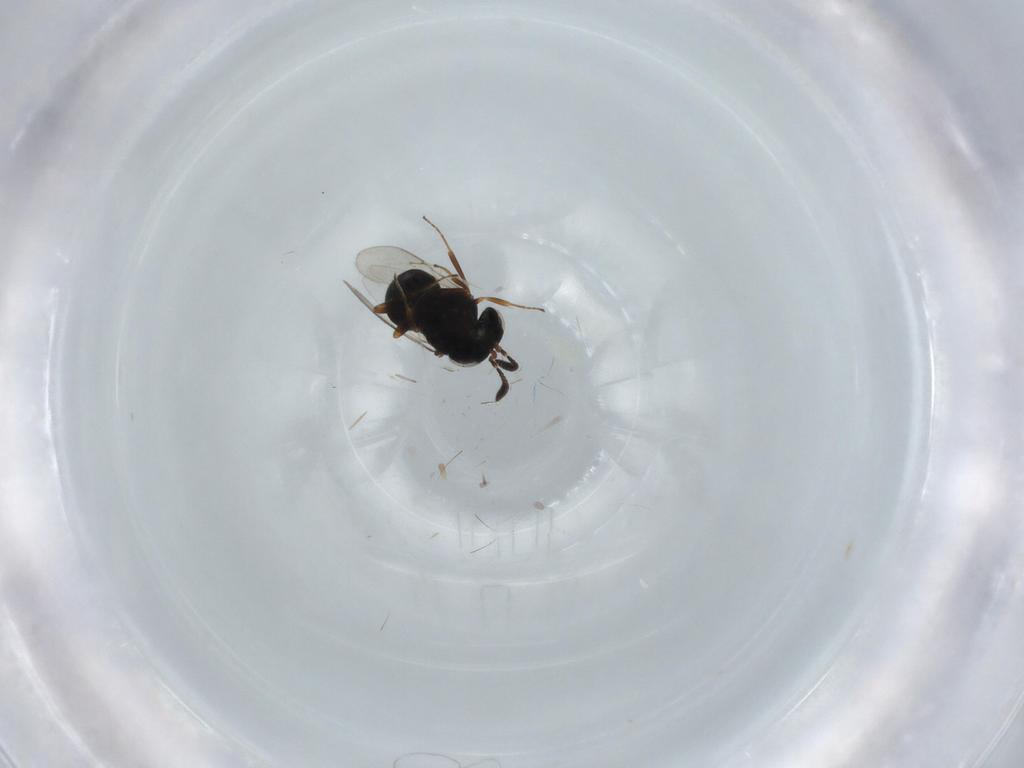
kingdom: Animalia
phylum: Arthropoda
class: Insecta
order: Hymenoptera
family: Scelionidae
